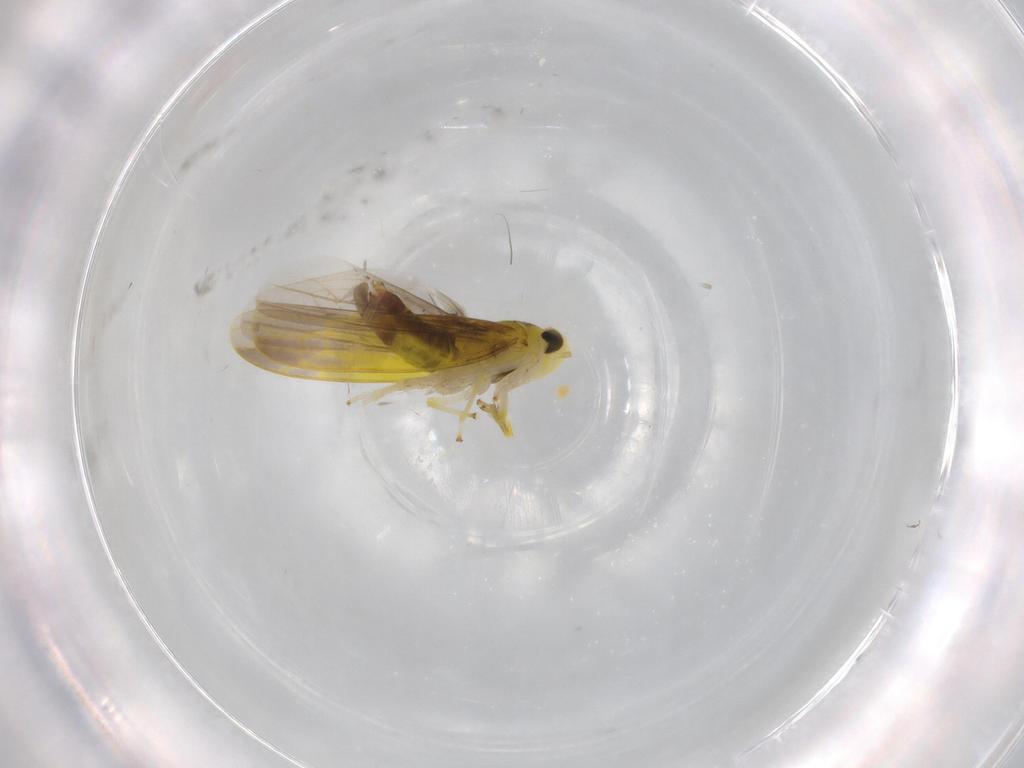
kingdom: Animalia
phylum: Arthropoda
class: Insecta
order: Hemiptera
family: Cicadellidae
